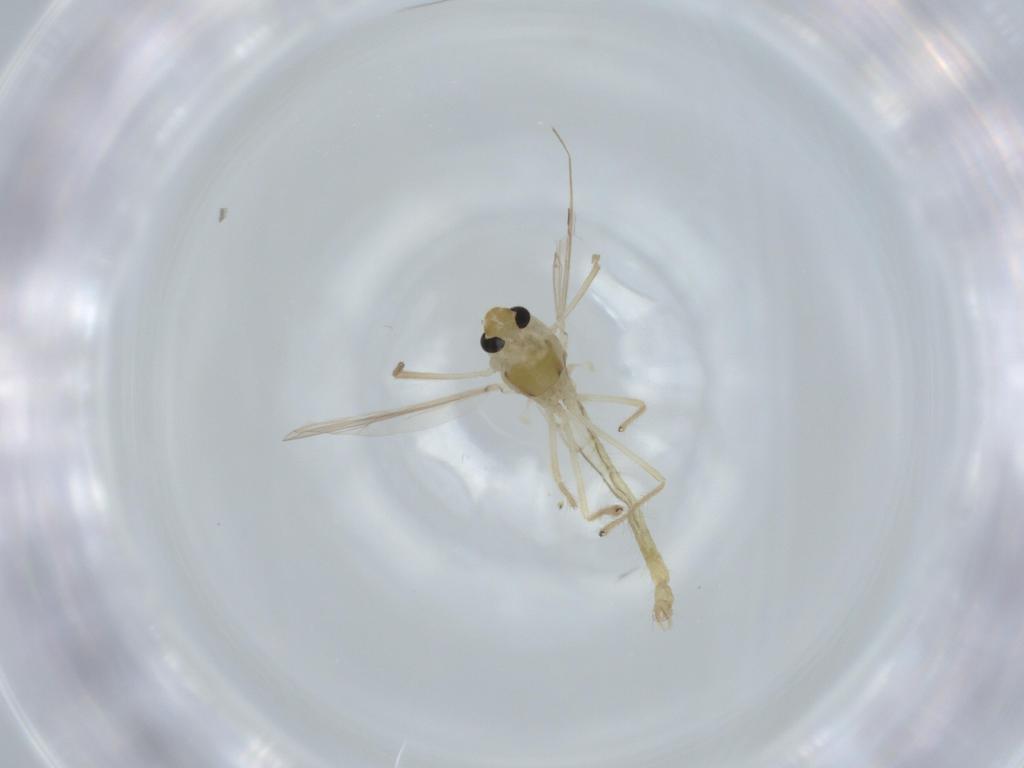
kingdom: Animalia
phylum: Arthropoda
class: Insecta
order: Diptera
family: Chironomidae
